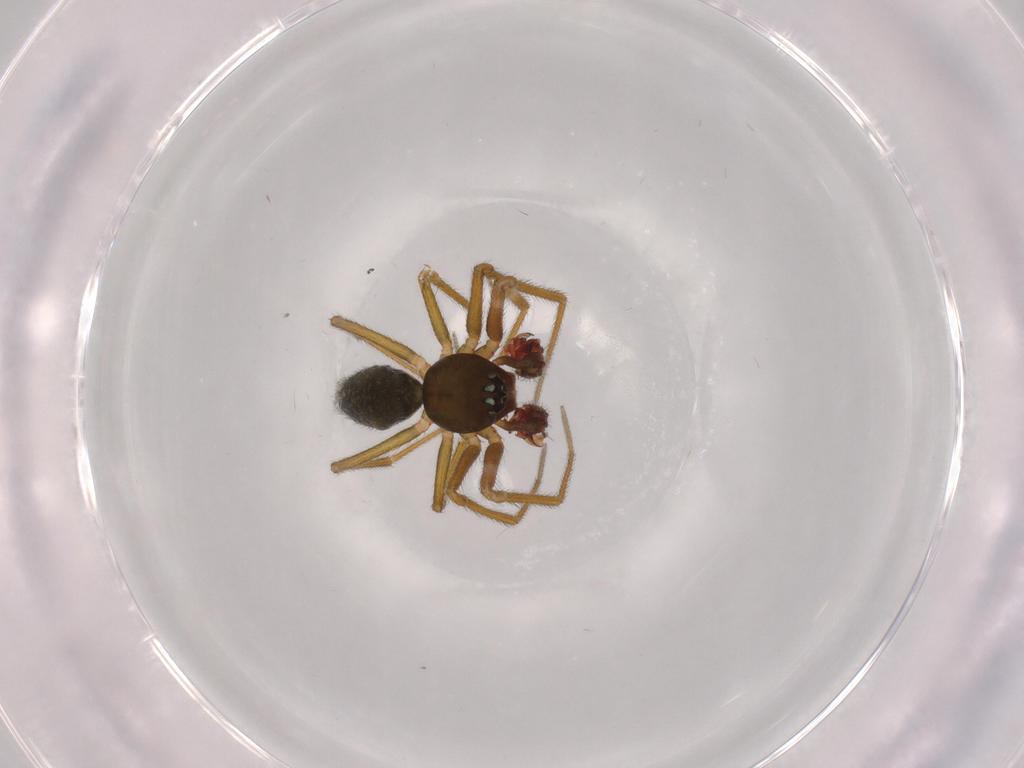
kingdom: Animalia
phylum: Arthropoda
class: Arachnida
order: Araneae
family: Linyphiidae
